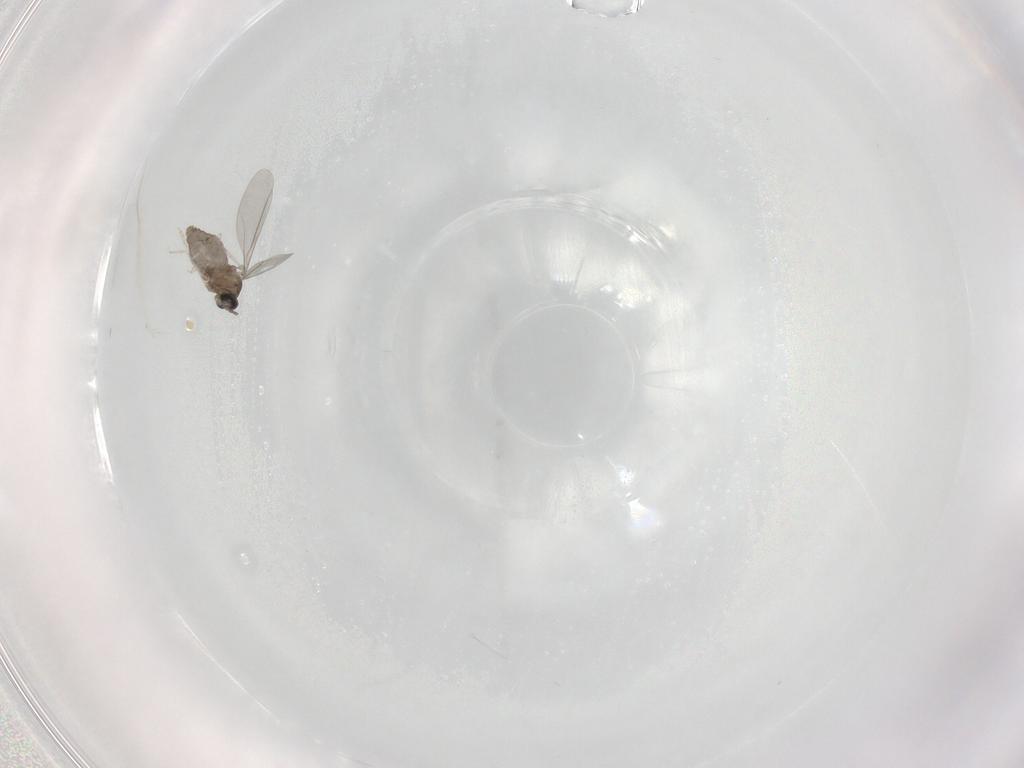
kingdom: Animalia
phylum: Arthropoda
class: Insecta
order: Diptera
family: Cecidomyiidae
